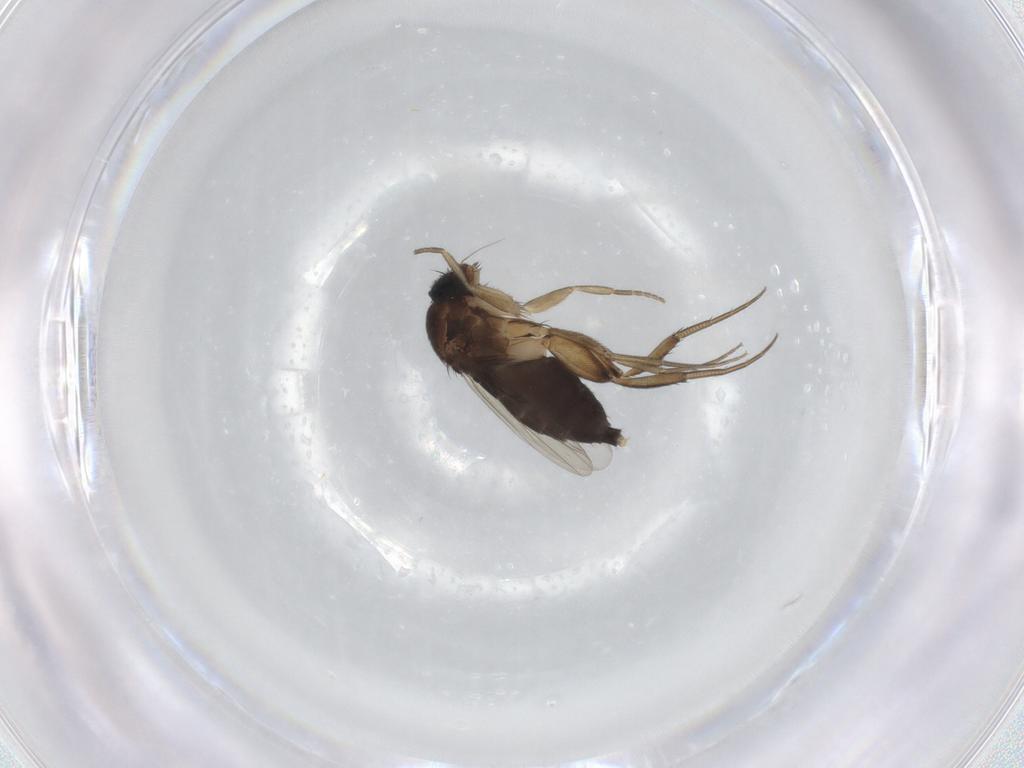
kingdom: Animalia
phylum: Arthropoda
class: Insecta
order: Diptera
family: Phoridae
